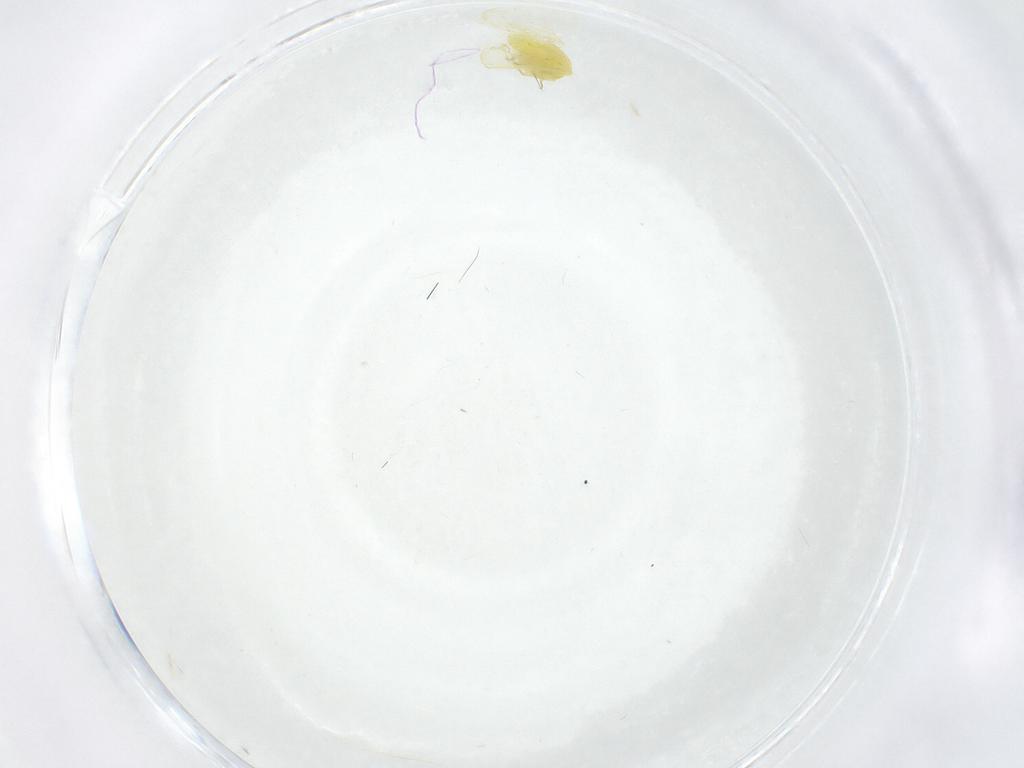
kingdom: Animalia
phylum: Arthropoda
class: Insecta
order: Hemiptera
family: Aleyrodidae
